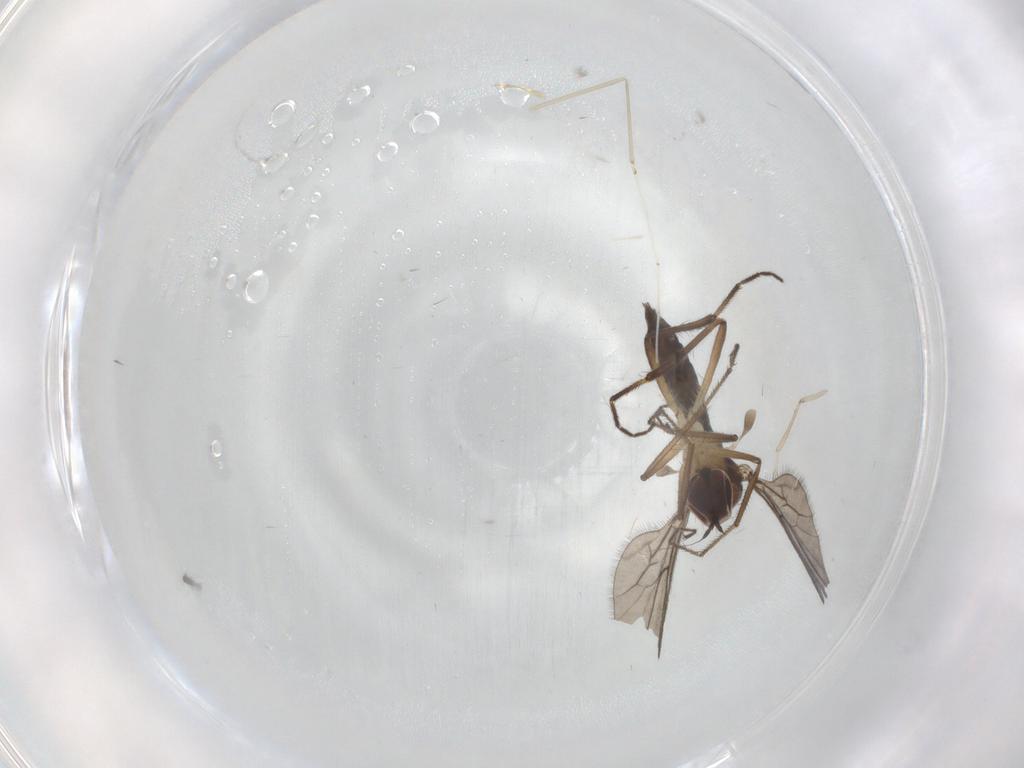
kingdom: Animalia
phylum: Arthropoda
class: Insecta
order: Diptera
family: Hybotidae
